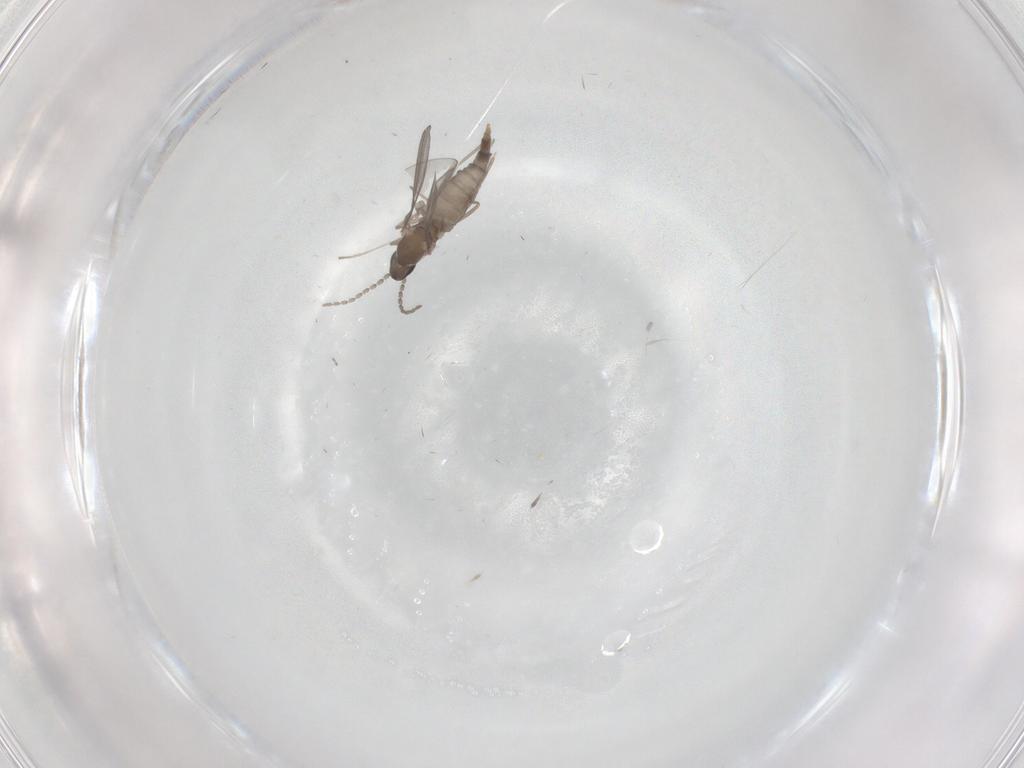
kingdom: Animalia
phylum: Arthropoda
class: Insecta
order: Diptera
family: Cecidomyiidae
